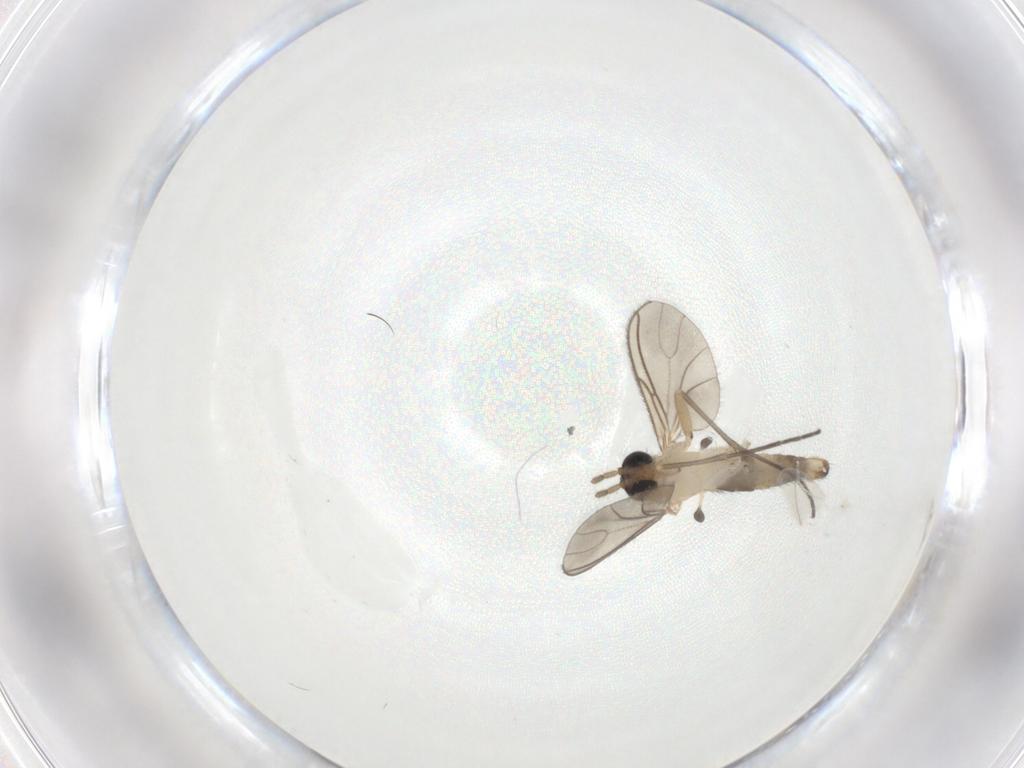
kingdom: Animalia
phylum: Arthropoda
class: Insecta
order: Diptera
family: Sciaridae
